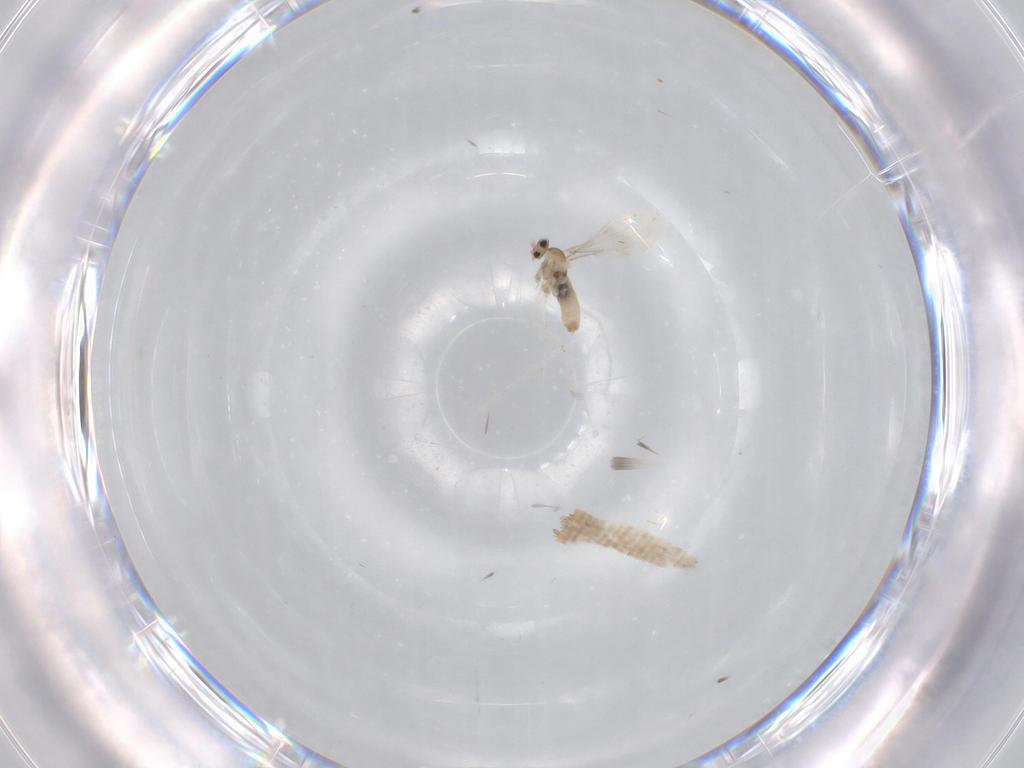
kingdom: Animalia
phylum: Arthropoda
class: Insecta
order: Diptera
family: Cecidomyiidae
